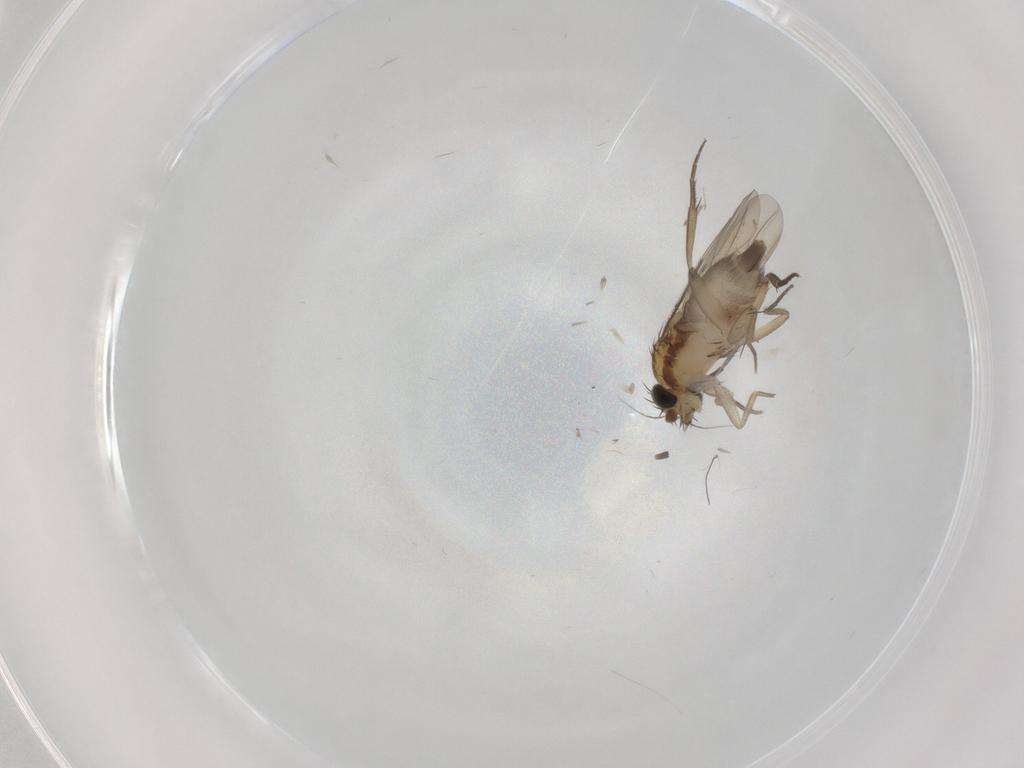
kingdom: Animalia
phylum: Arthropoda
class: Insecta
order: Diptera
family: Phoridae
